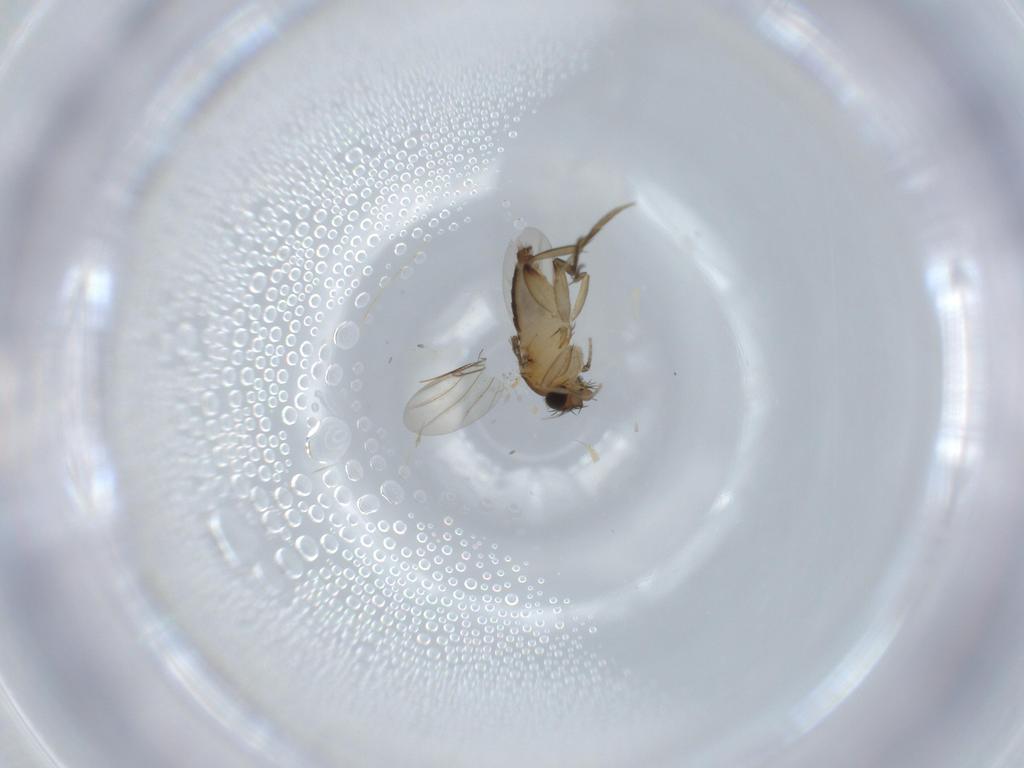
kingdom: Animalia
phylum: Arthropoda
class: Insecta
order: Diptera
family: Phoridae
